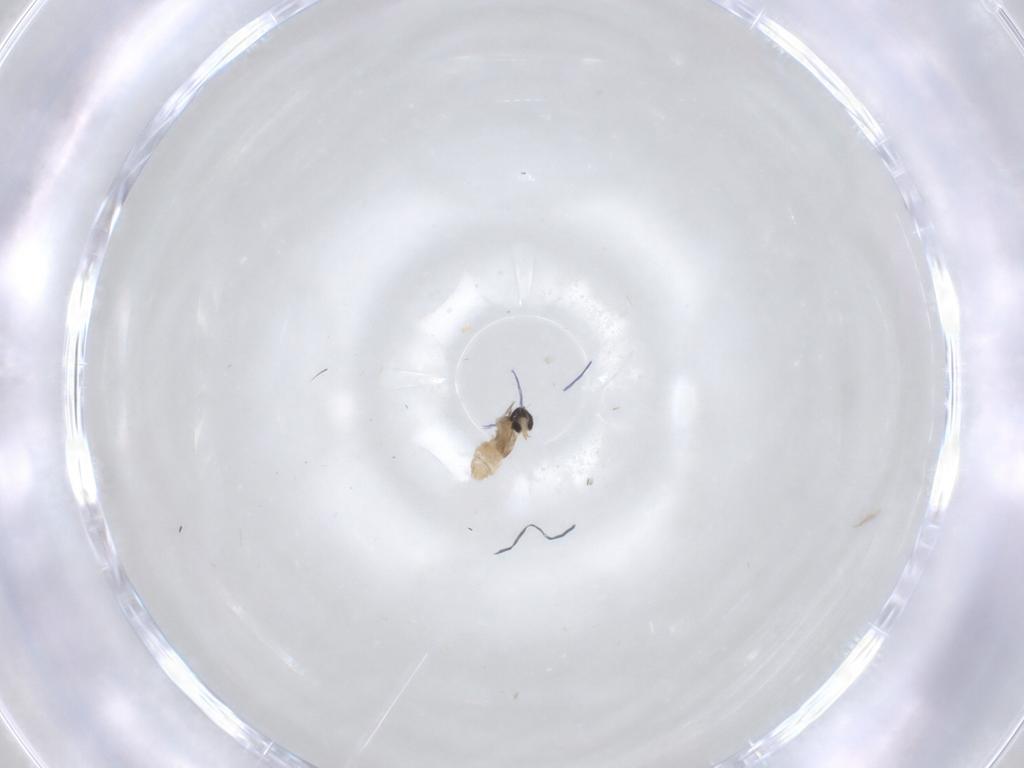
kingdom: Animalia
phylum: Arthropoda
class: Insecta
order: Diptera
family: Cecidomyiidae
